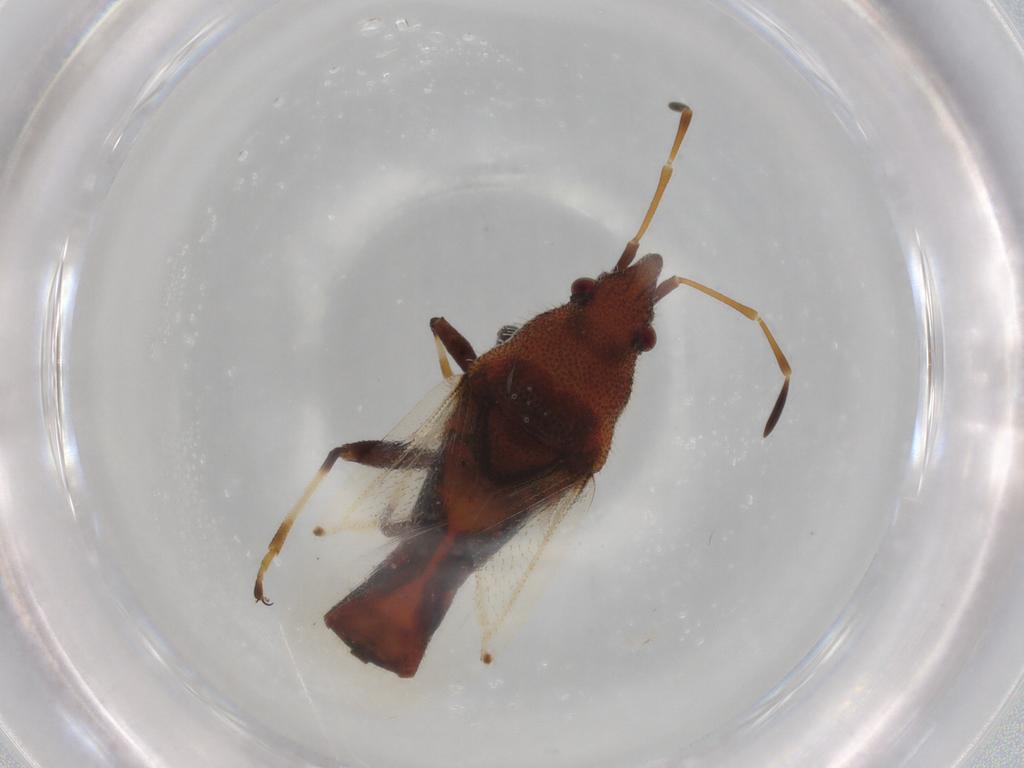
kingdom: Animalia
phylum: Arthropoda
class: Insecta
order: Hemiptera
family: Oxycarenidae
